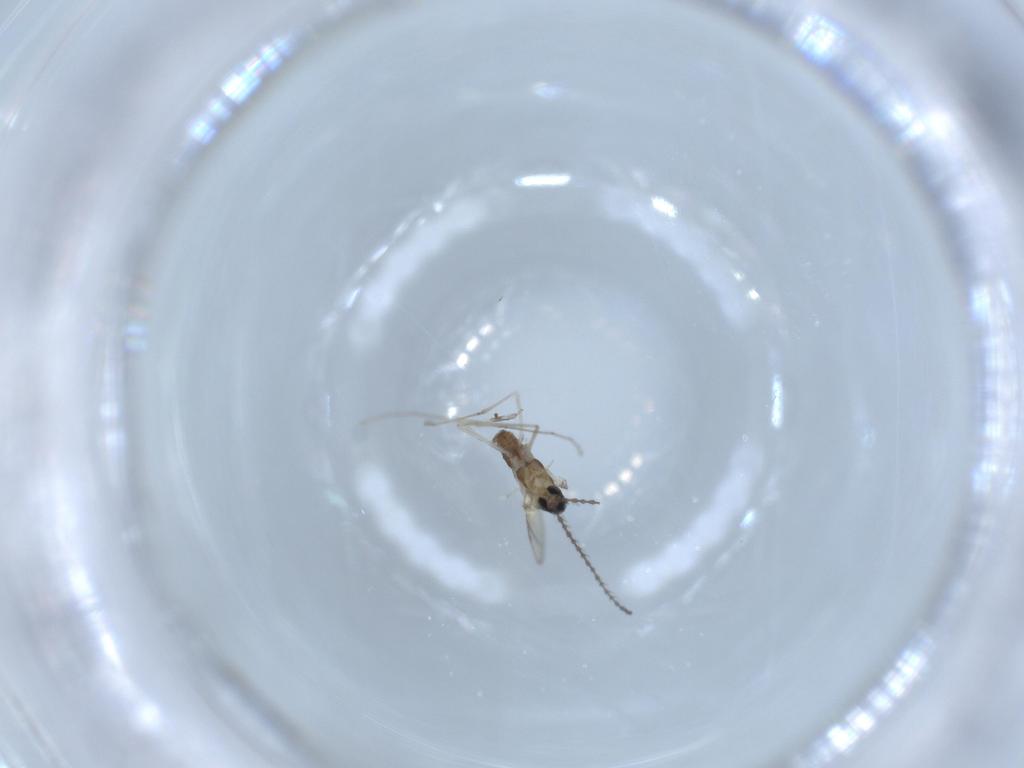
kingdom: Animalia
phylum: Arthropoda
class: Insecta
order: Diptera
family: Cecidomyiidae
